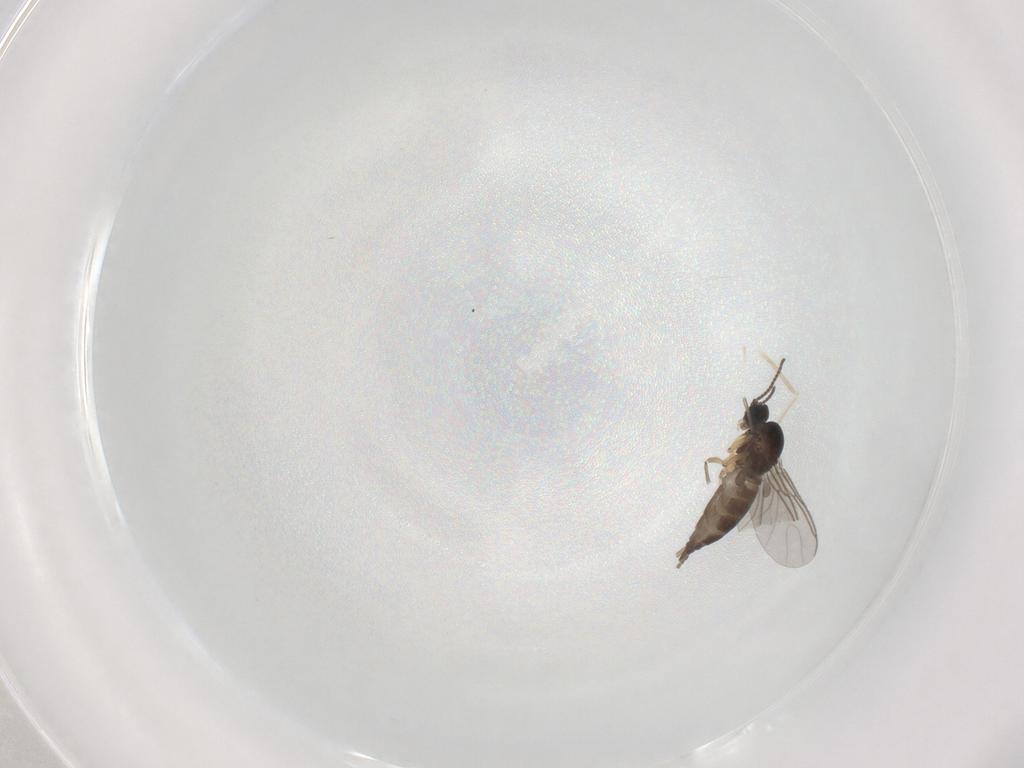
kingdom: Animalia
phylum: Arthropoda
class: Insecta
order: Diptera
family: Sciaridae
